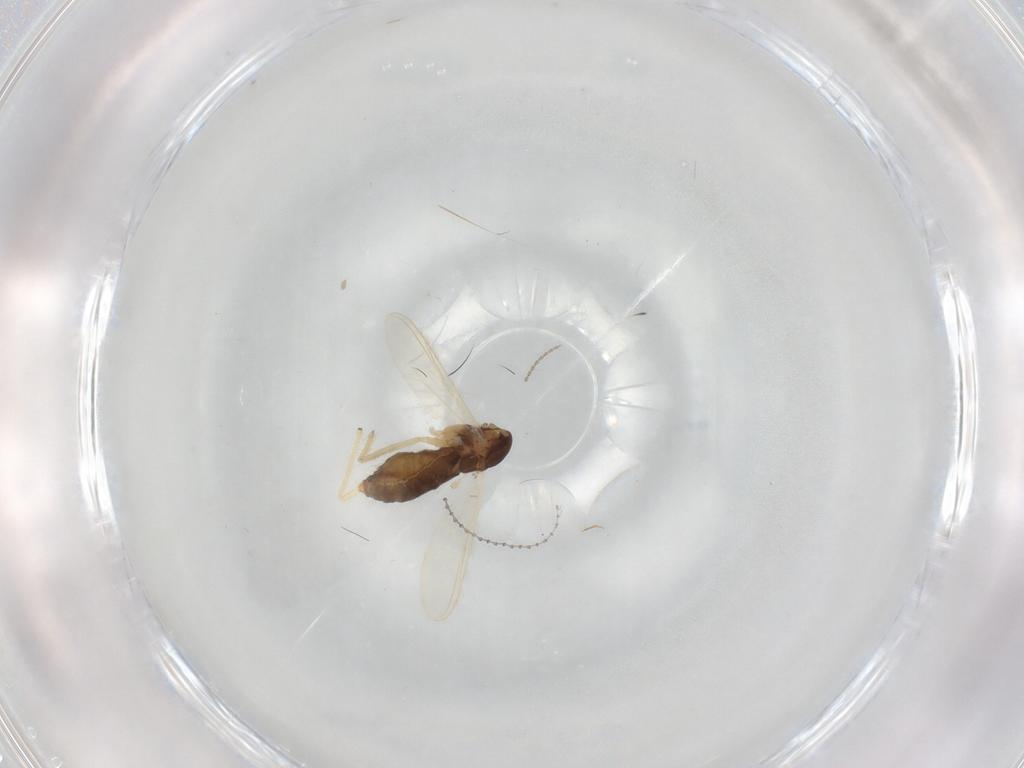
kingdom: Animalia
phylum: Arthropoda
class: Insecta
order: Diptera
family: Chironomidae
